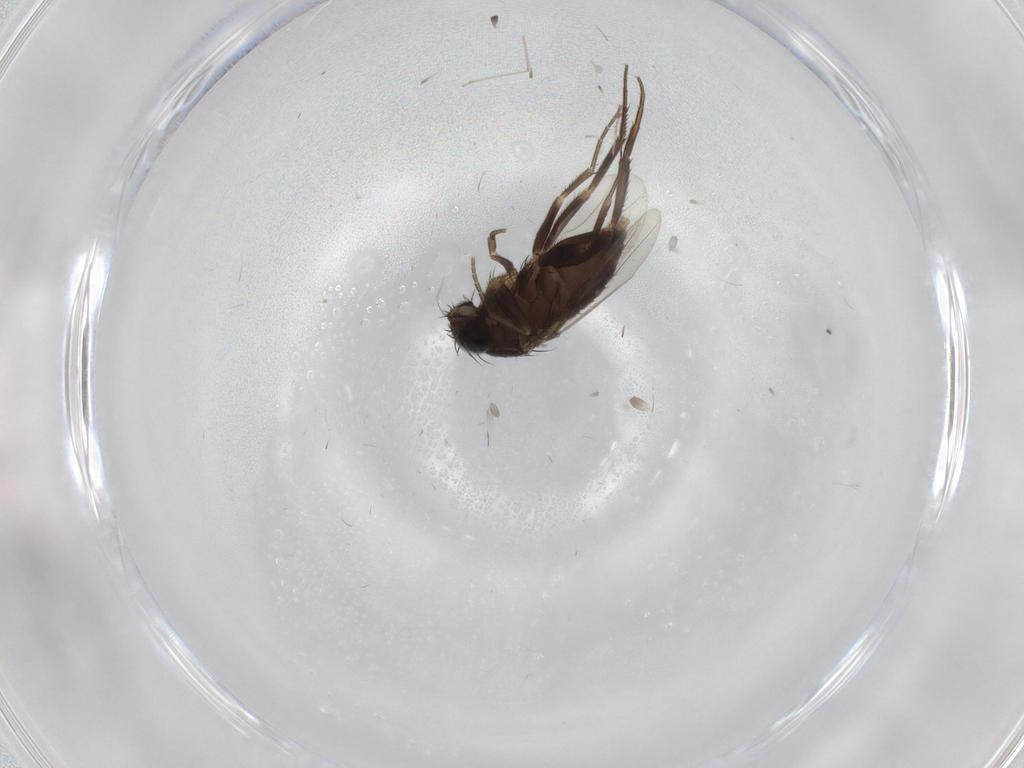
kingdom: Animalia
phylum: Arthropoda
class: Insecta
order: Diptera
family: Phoridae
